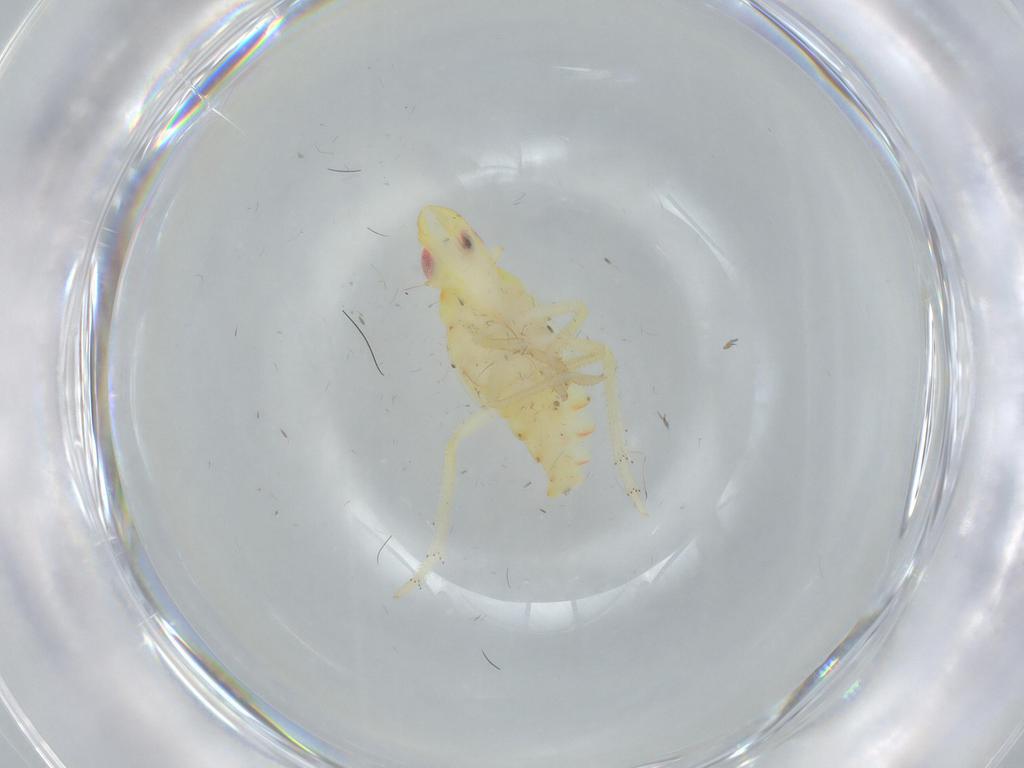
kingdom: Animalia
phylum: Arthropoda
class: Insecta
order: Hemiptera
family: Tropiduchidae
